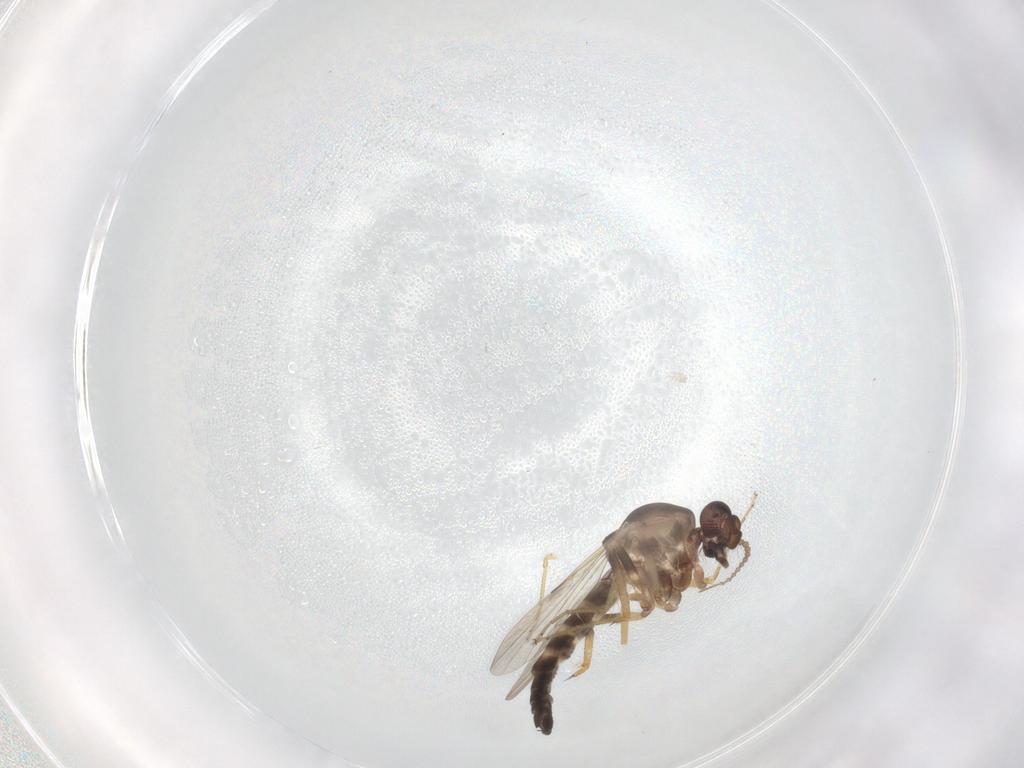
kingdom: Animalia
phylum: Arthropoda
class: Insecta
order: Diptera
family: Ceratopogonidae
